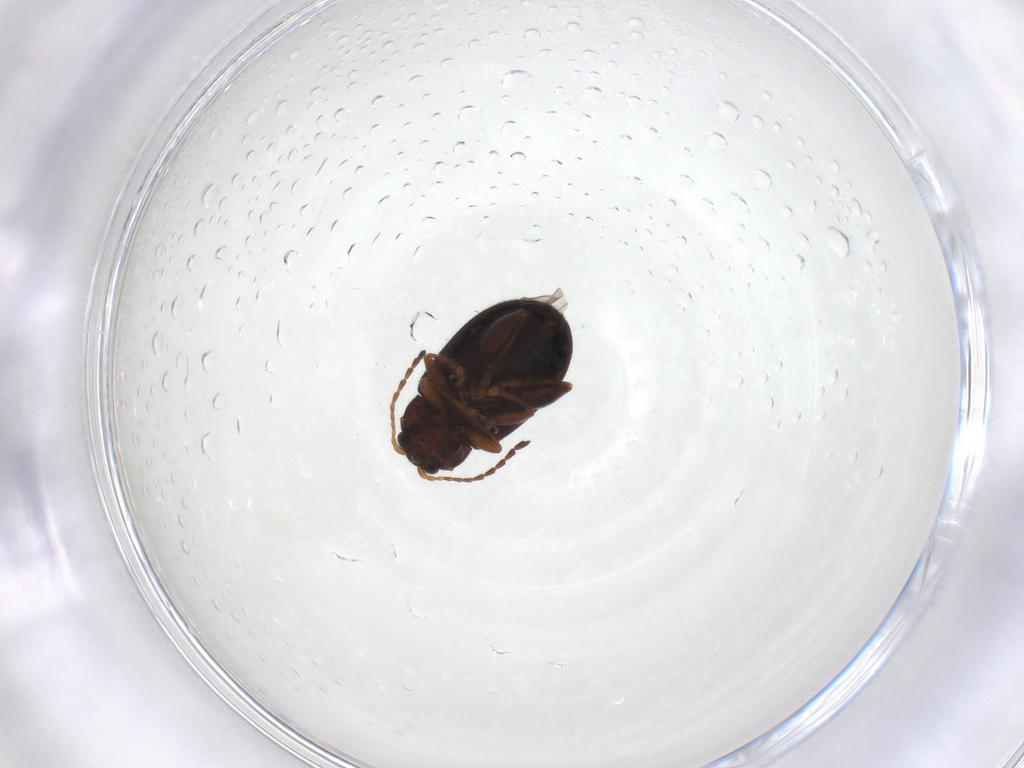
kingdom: Animalia
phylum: Arthropoda
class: Insecta
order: Coleoptera
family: Chrysomelidae
